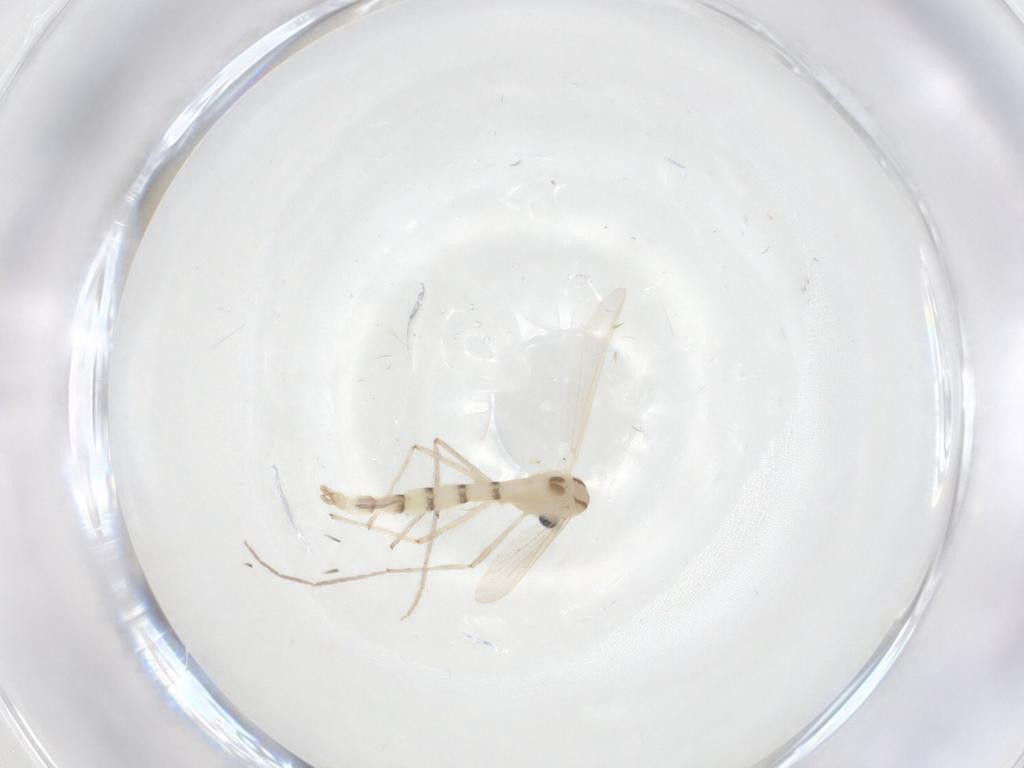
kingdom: Animalia
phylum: Arthropoda
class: Insecta
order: Diptera
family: Chironomidae
